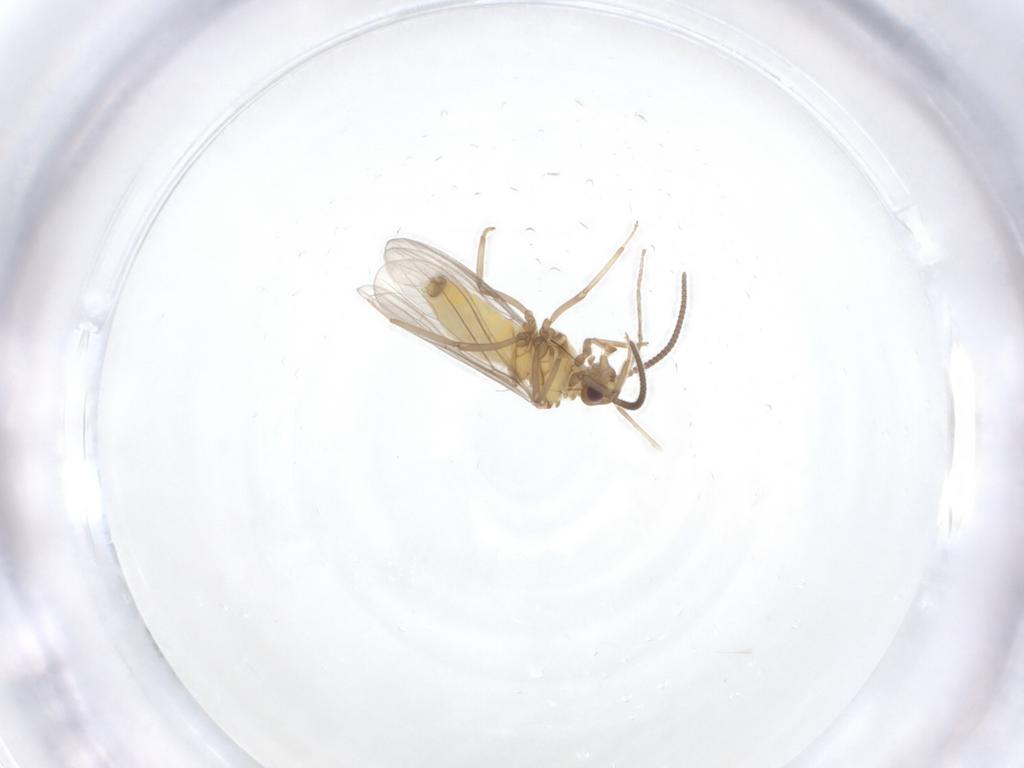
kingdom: Animalia
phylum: Arthropoda
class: Insecta
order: Neuroptera
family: Coniopterygidae
